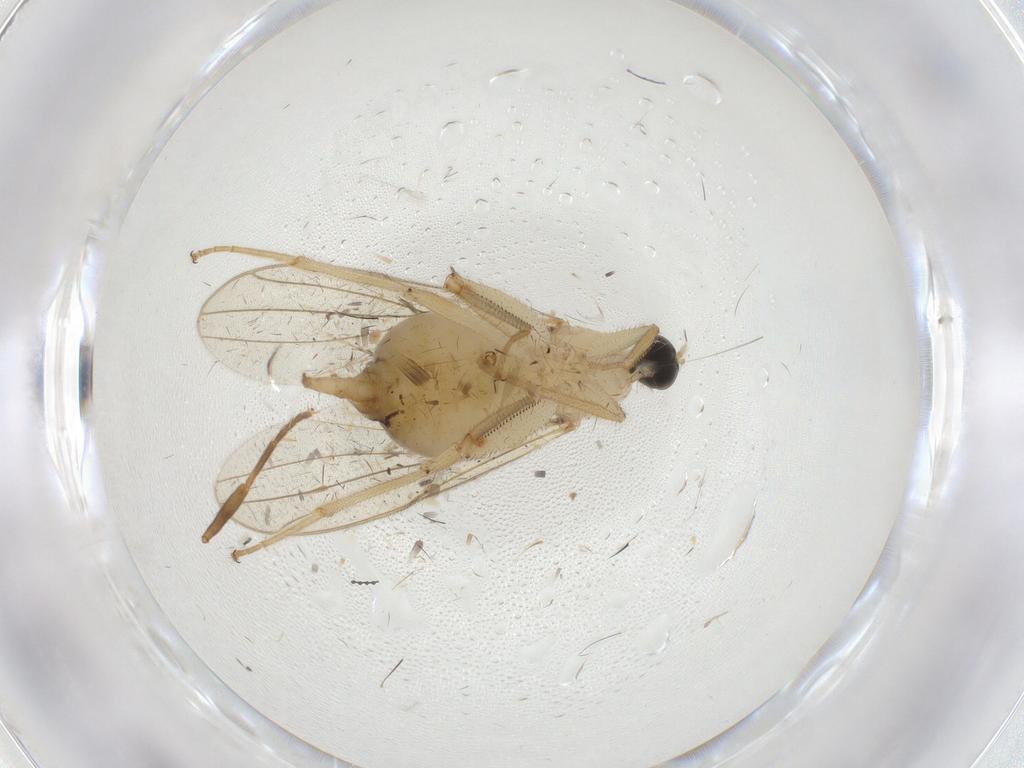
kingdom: Animalia
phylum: Arthropoda
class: Insecta
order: Diptera
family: Hybotidae
